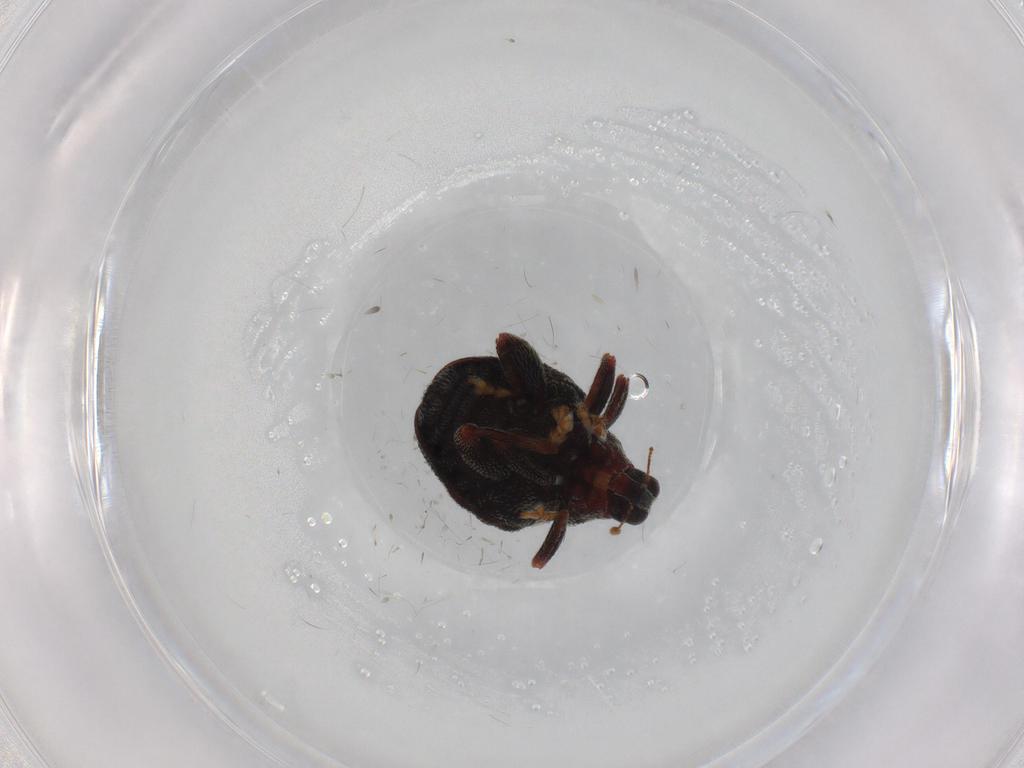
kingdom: Animalia
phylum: Arthropoda
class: Insecta
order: Coleoptera
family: Curculionidae
